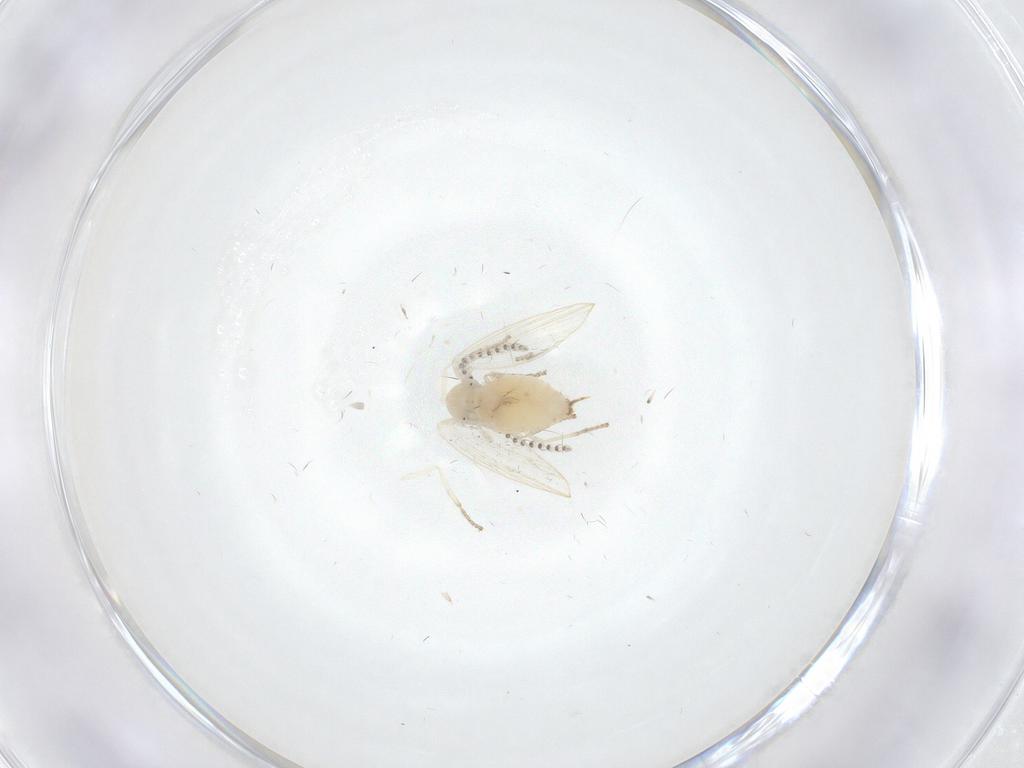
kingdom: Animalia
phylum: Arthropoda
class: Insecta
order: Diptera
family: Psychodidae
